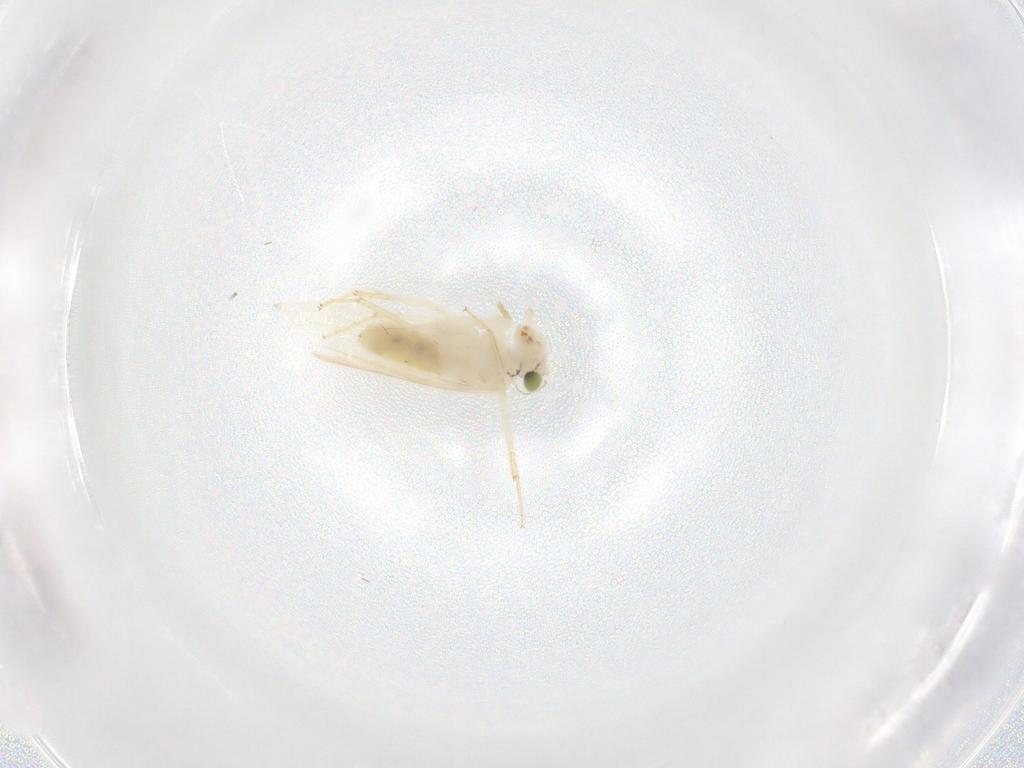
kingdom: Animalia
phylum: Arthropoda
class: Insecta
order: Psocodea
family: Lepidopsocidae
